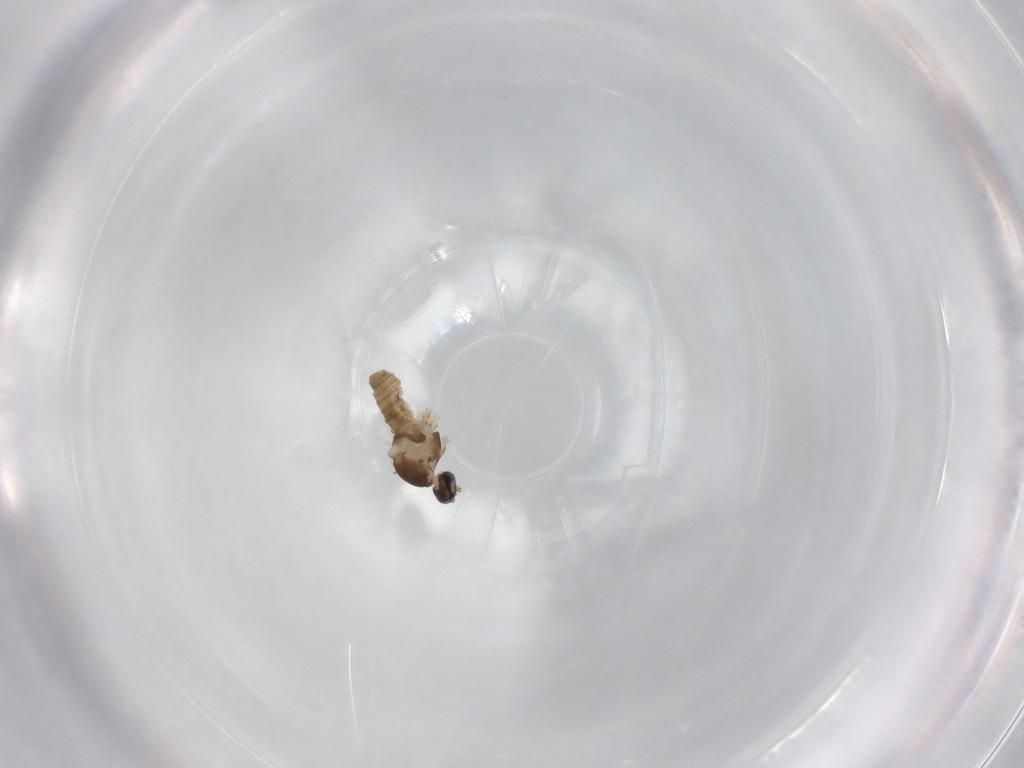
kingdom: Animalia
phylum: Arthropoda
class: Insecta
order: Diptera
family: Cecidomyiidae
